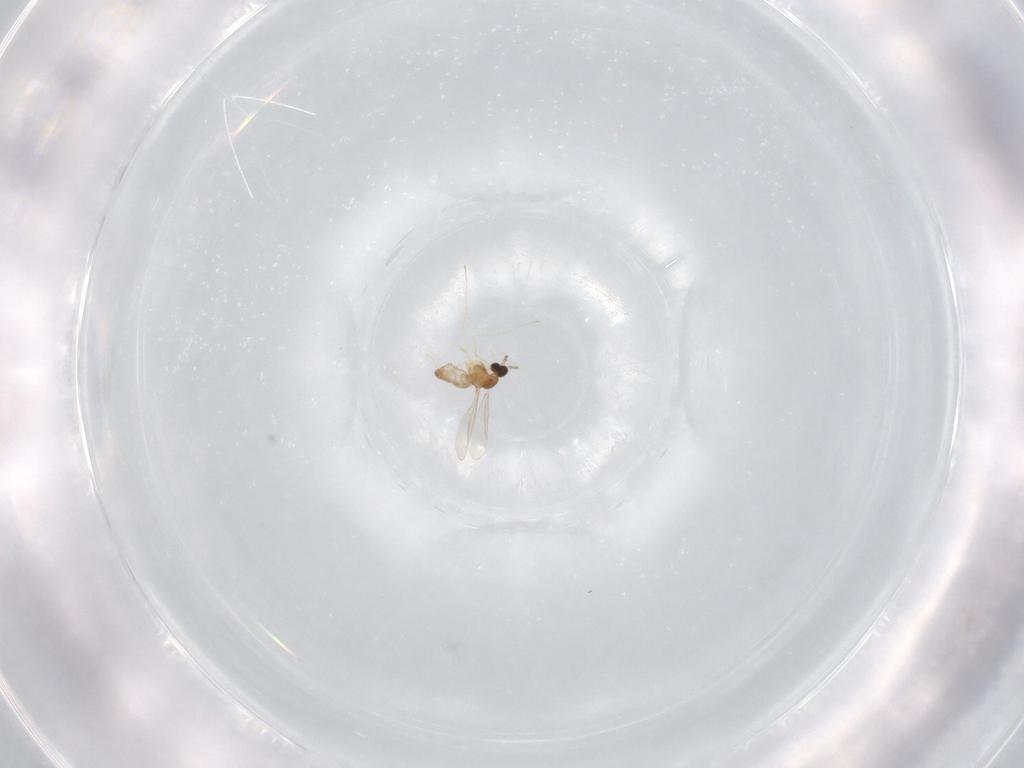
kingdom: Animalia
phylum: Arthropoda
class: Insecta
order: Diptera
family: Cecidomyiidae
